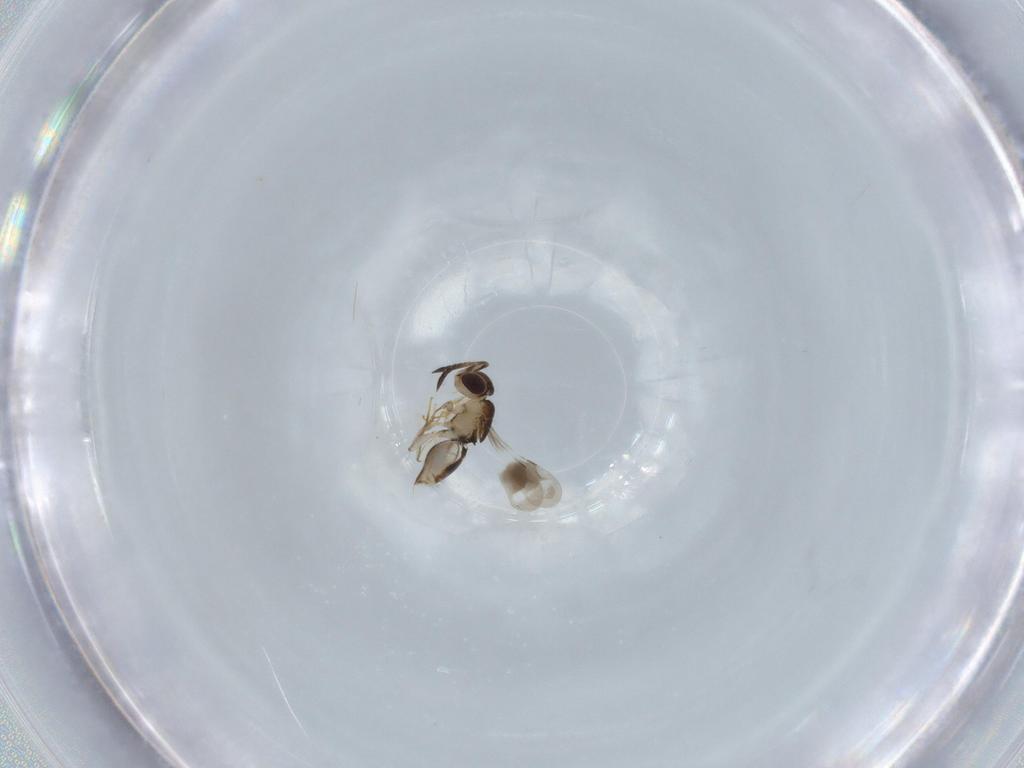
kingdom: Animalia
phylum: Arthropoda
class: Insecta
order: Hymenoptera
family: Ceraphronidae
